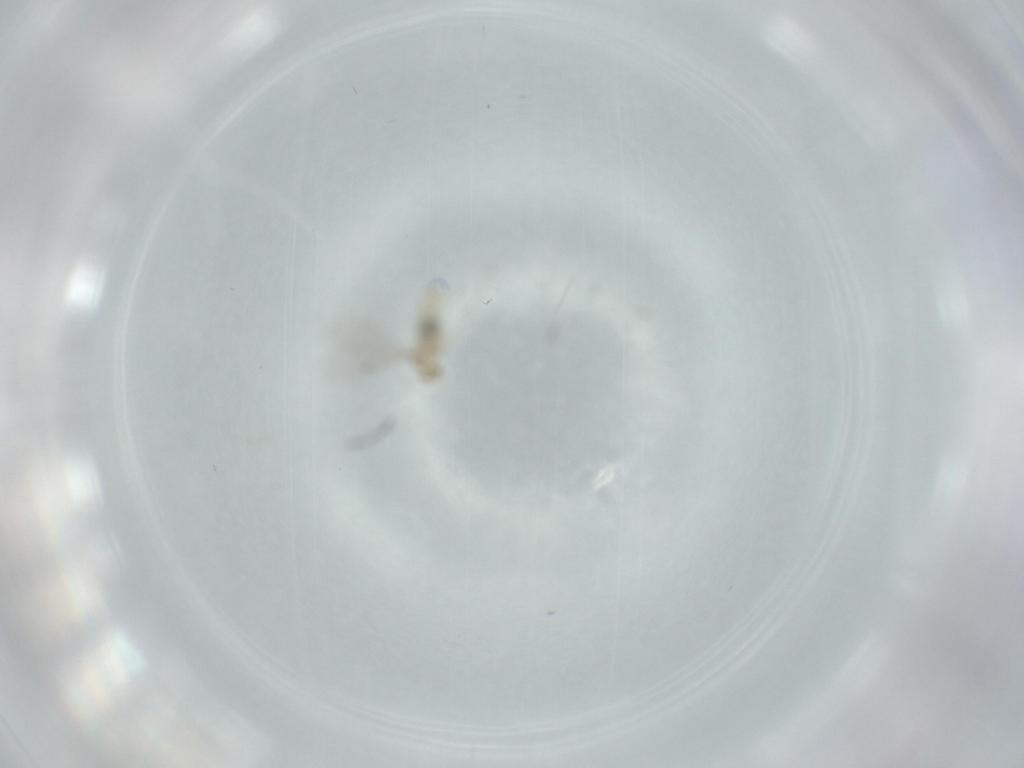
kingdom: Animalia
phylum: Arthropoda
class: Insecta
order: Diptera
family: Cecidomyiidae
